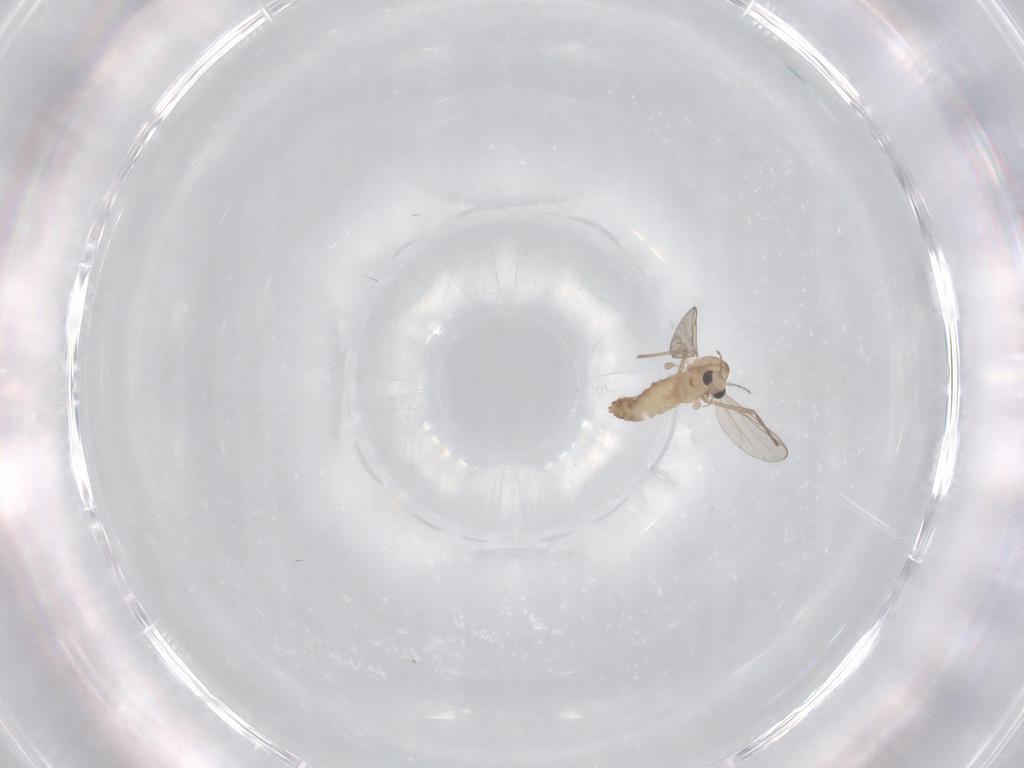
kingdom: Animalia
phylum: Arthropoda
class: Insecta
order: Diptera
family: Chironomidae
